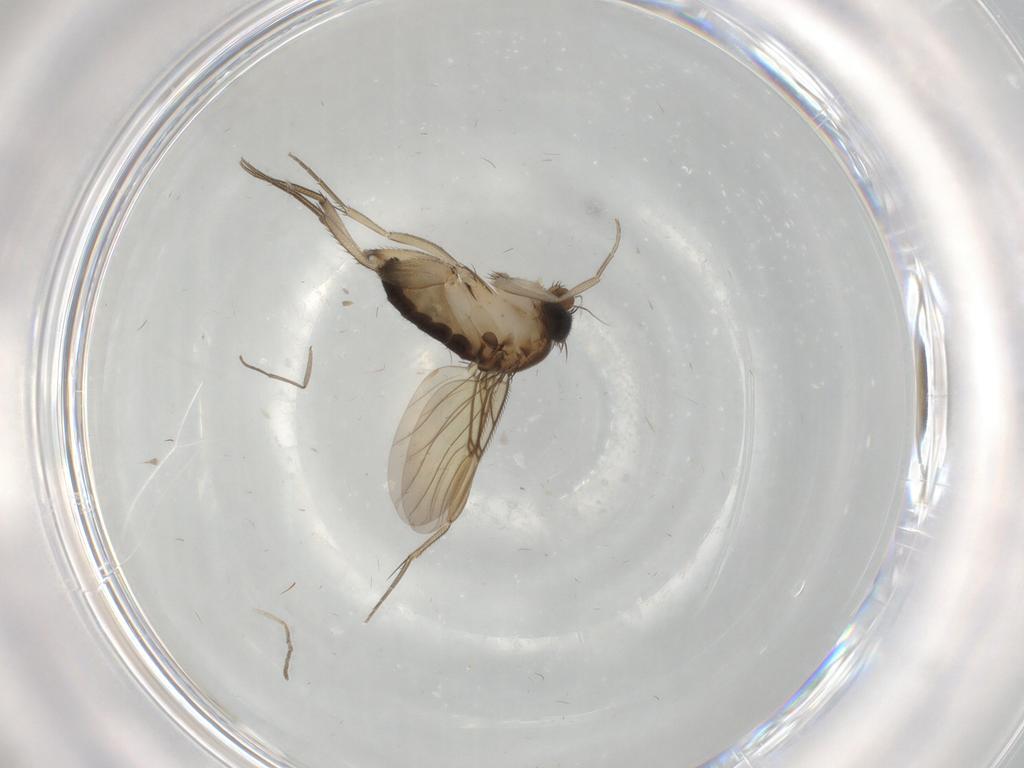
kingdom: Animalia
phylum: Arthropoda
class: Insecta
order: Diptera
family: Phoridae
